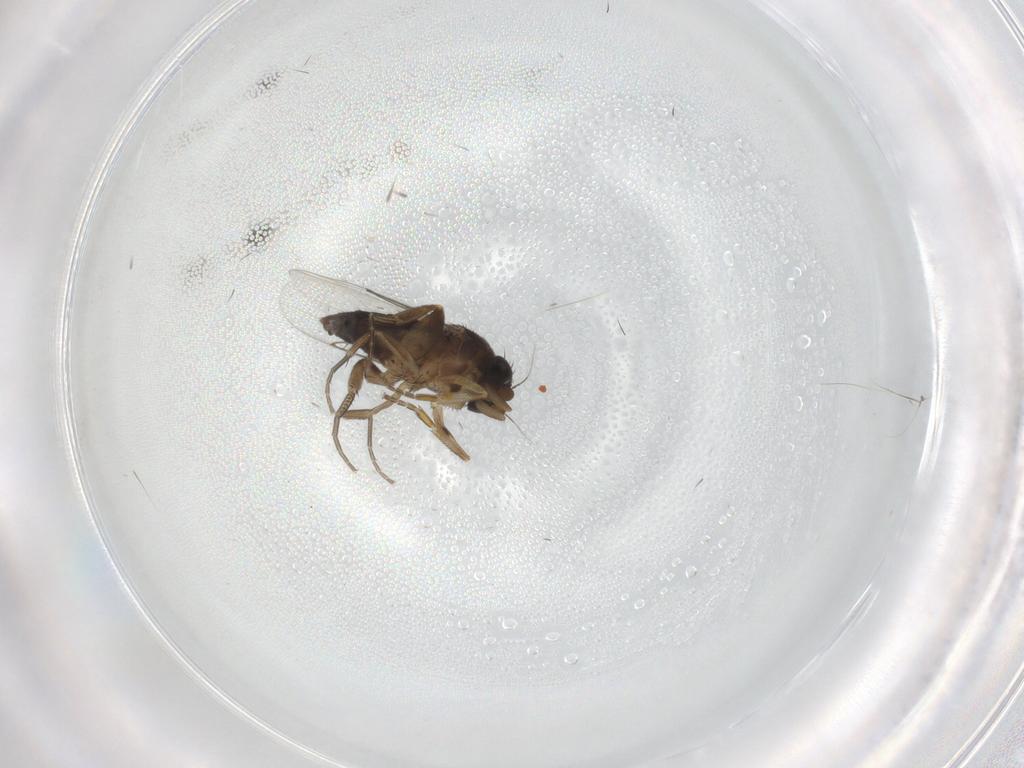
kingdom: Animalia
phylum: Arthropoda
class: Insecta
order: Diptera
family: Phoridae
